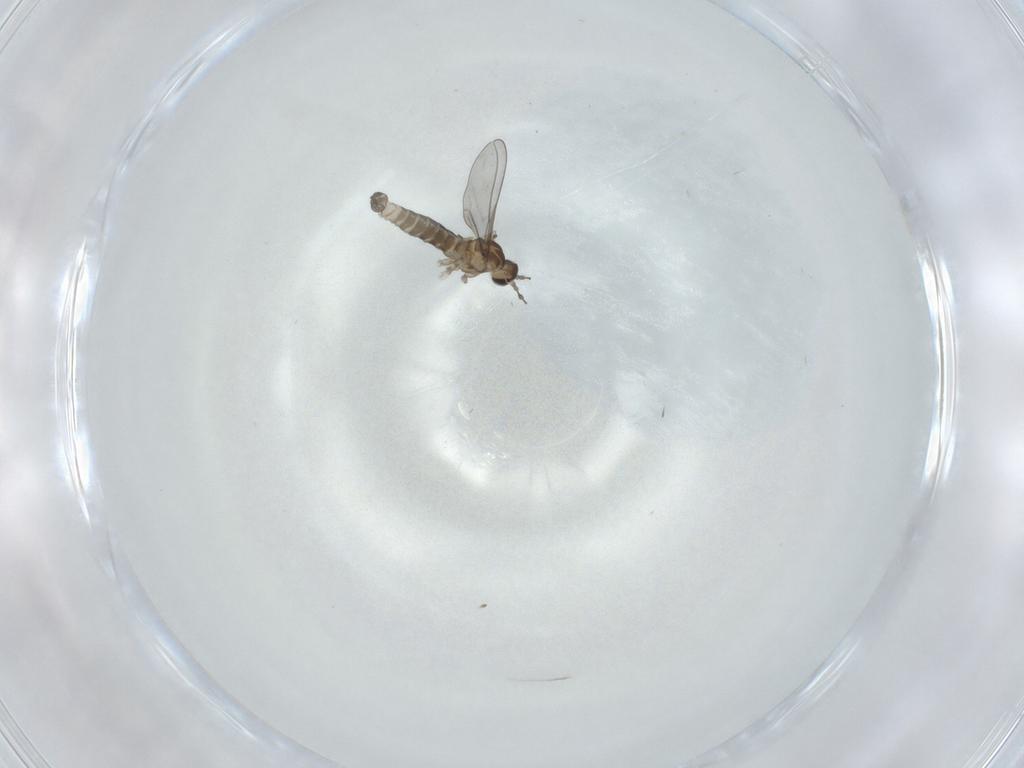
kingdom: Animalia
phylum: Arthropoda
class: Insecta
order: Diptera
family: Cecidomyiidae
